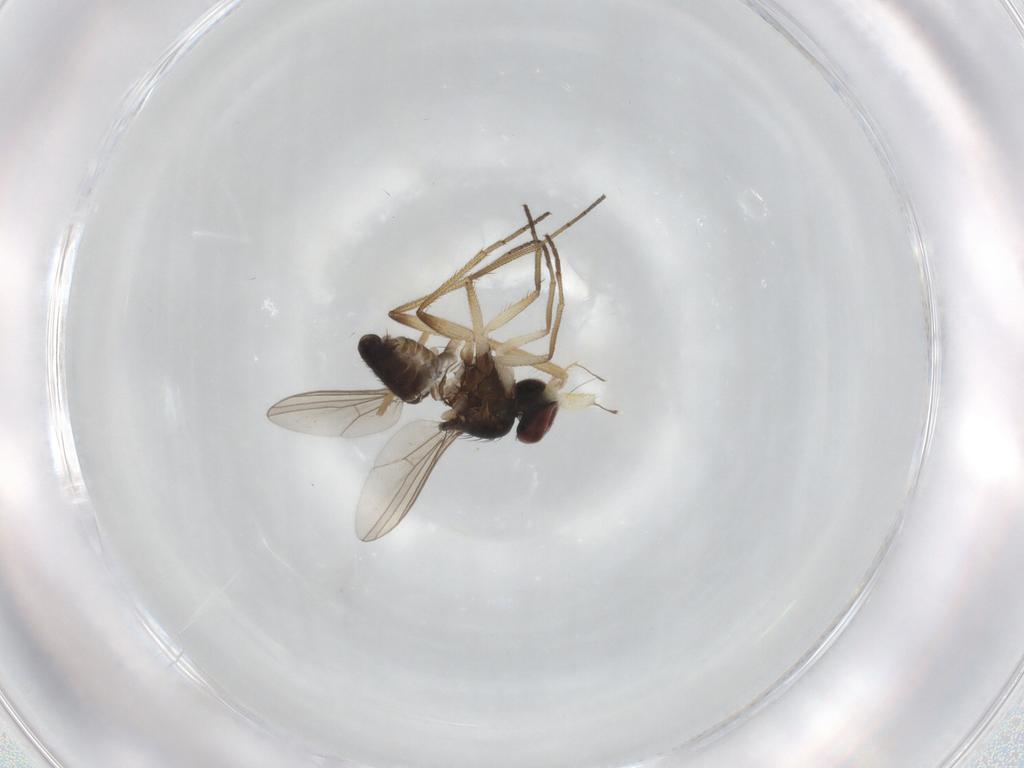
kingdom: Animalia
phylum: Arthropoda
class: Insecta
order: Diptera
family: Dolichopodidae
